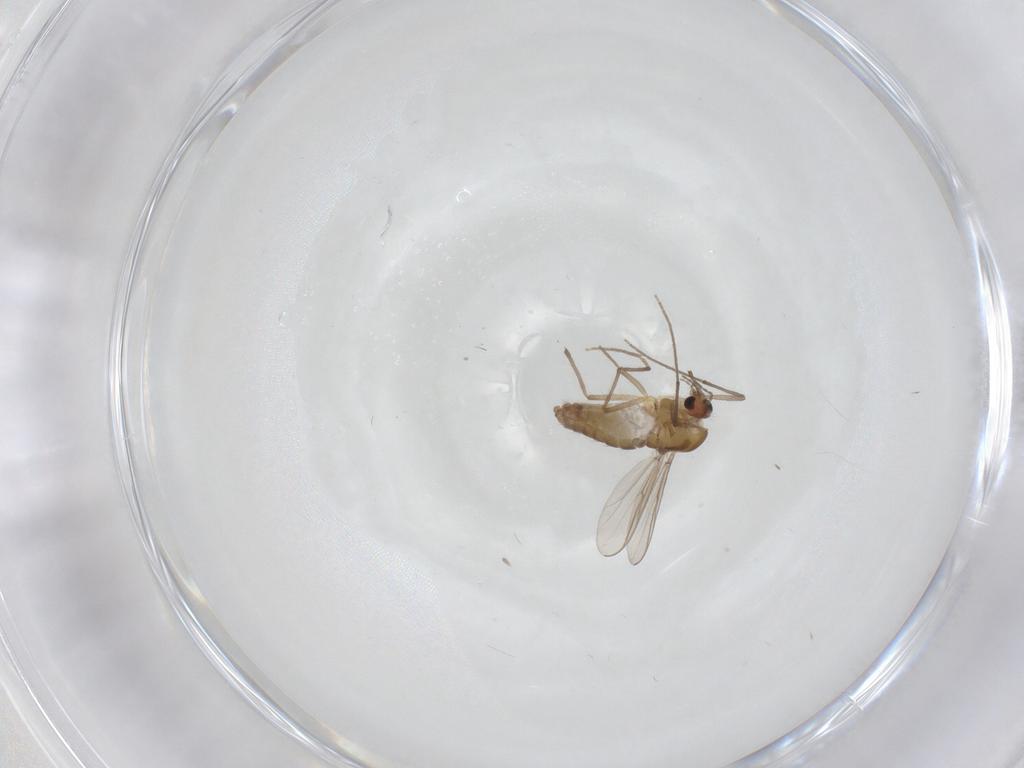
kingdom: Animalia
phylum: Arthropoda
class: Insecta
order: Diptera
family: Chironomidae
